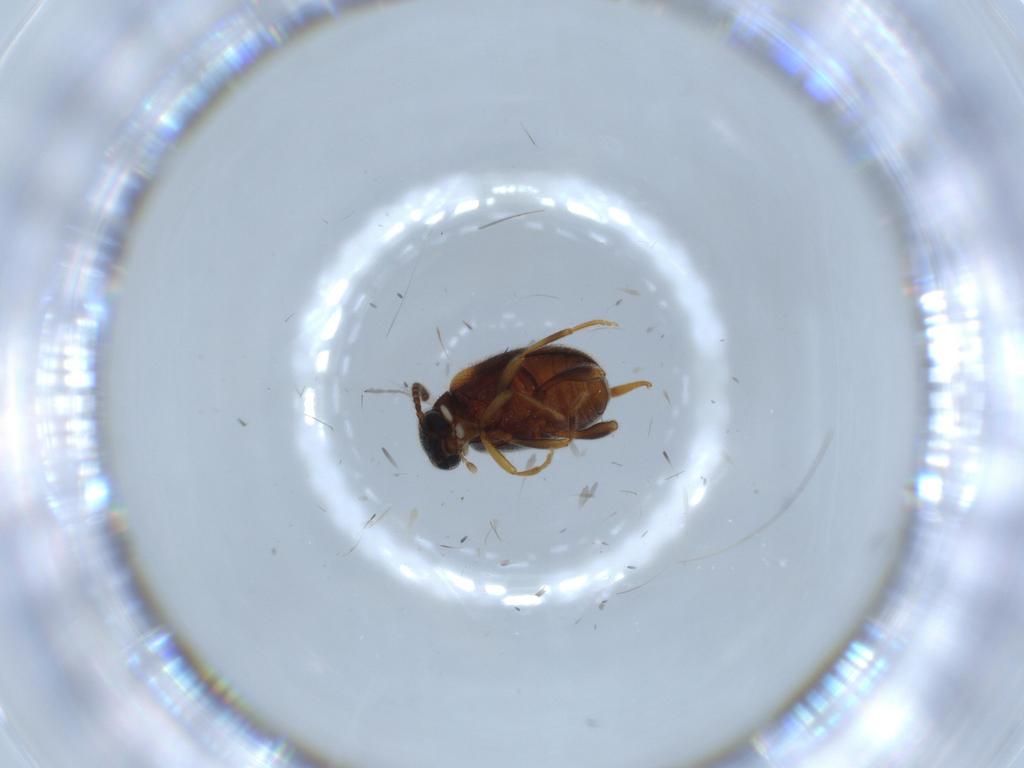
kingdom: Animalia
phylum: Arthropoda
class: Insecta
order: Coleoptera
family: Aderidae
